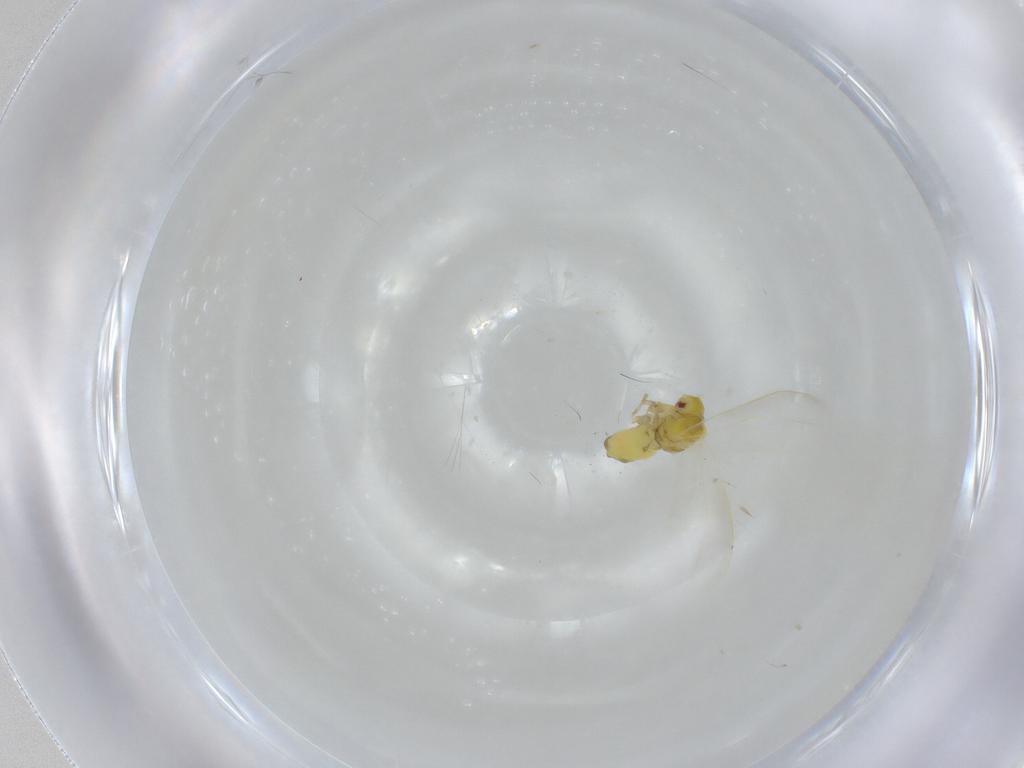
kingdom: Animalia
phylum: Arthropoda
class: Insecta
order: Hemiptera
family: Aleyrodidae
